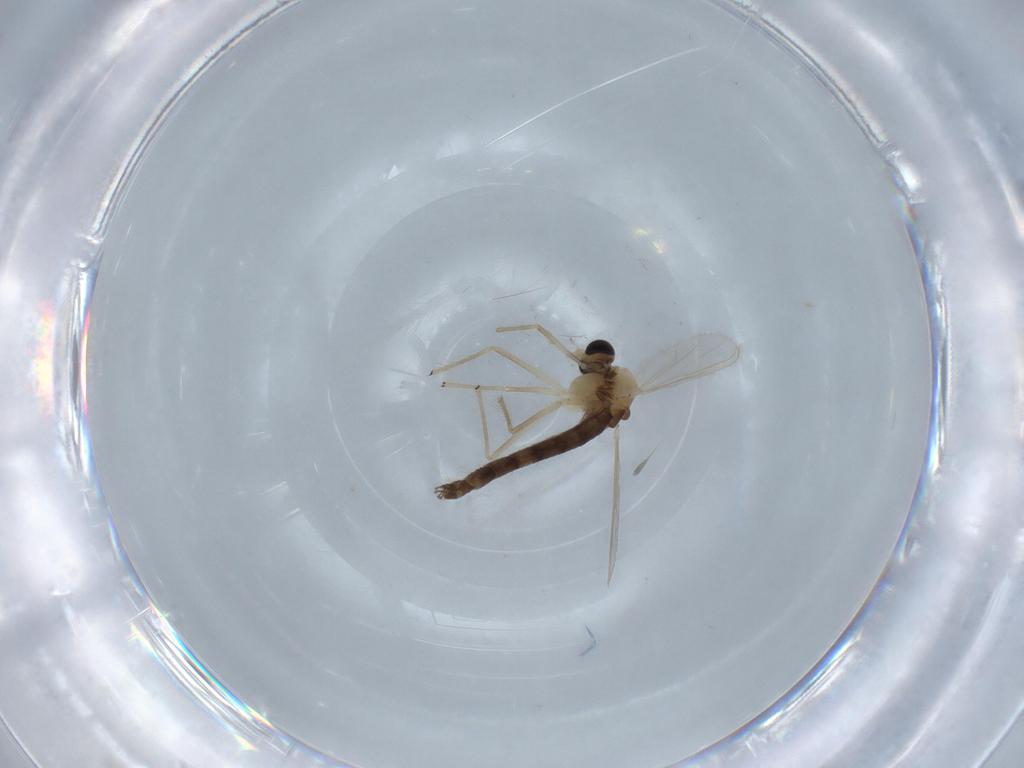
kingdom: Animalia
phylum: Arthropoda
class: Insecta
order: Diptera
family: Chironomidae
